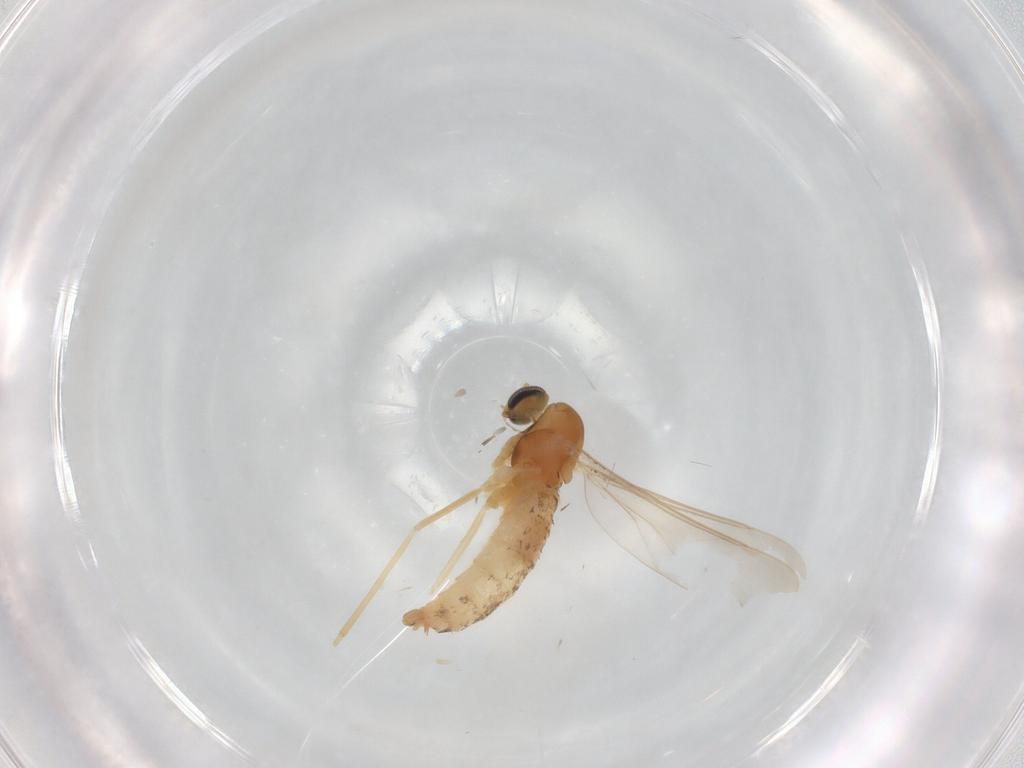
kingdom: Animalia
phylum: Arthropoda
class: Insecta
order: Diptera
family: Cecidomyiidae
